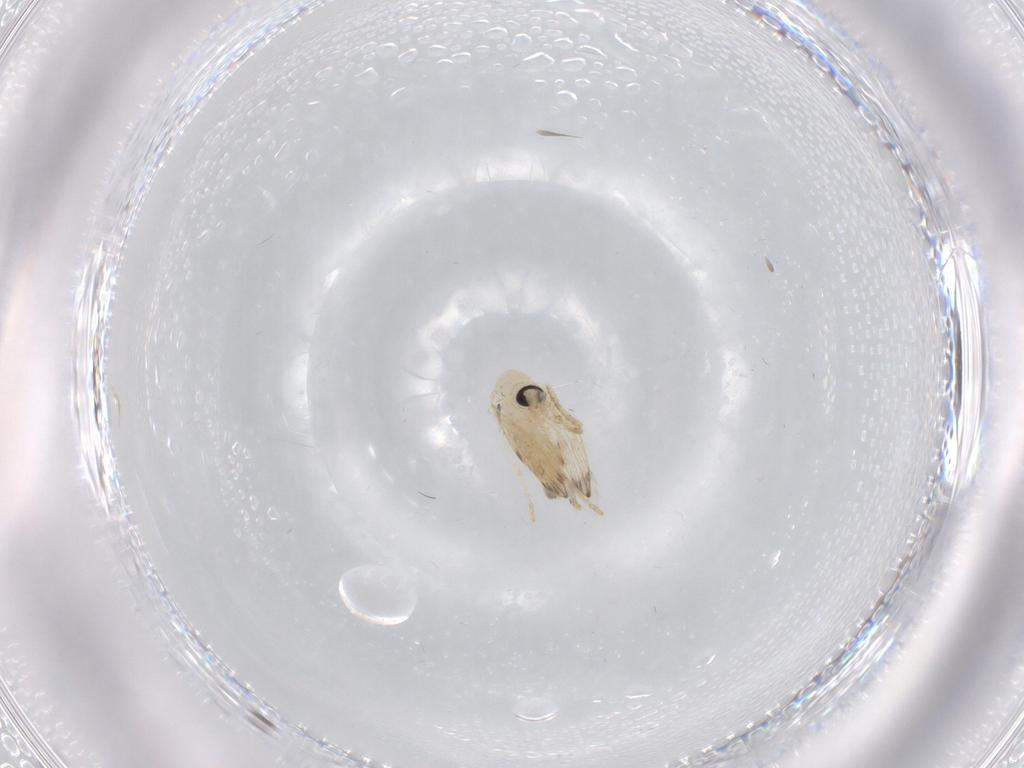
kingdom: Animalia
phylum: Arthropoda
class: Insecta
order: Diptera
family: Psychodidae
